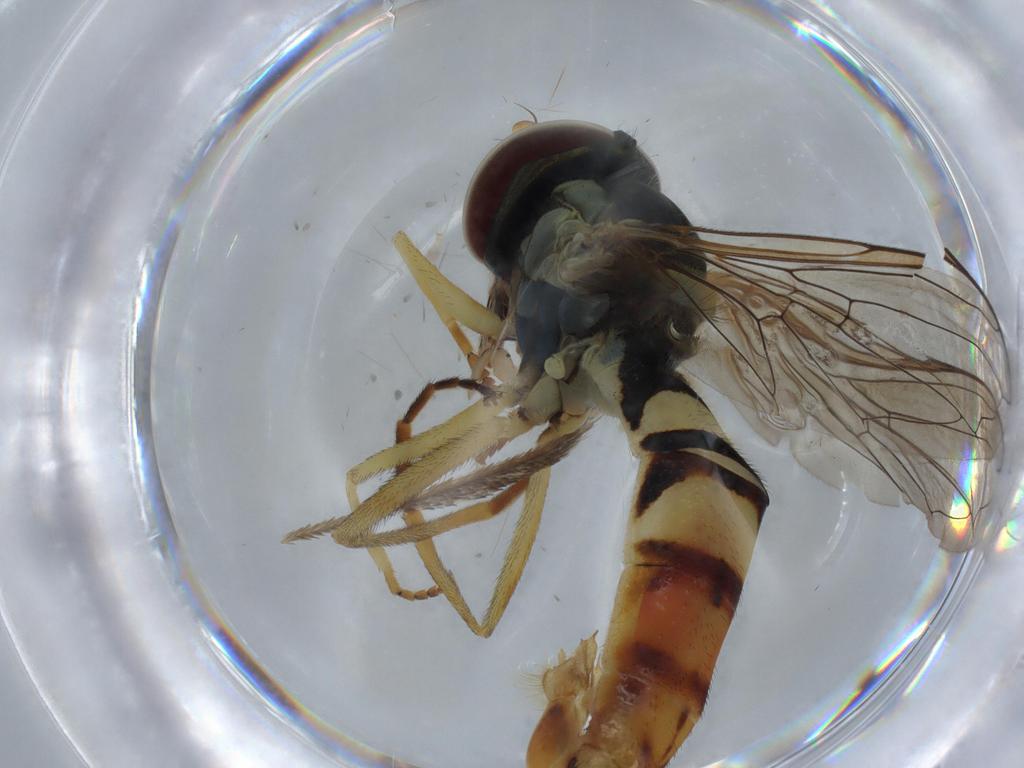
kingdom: Animalia
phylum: Arthropoda
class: Insecta
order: Diptera
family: Syrphidae
